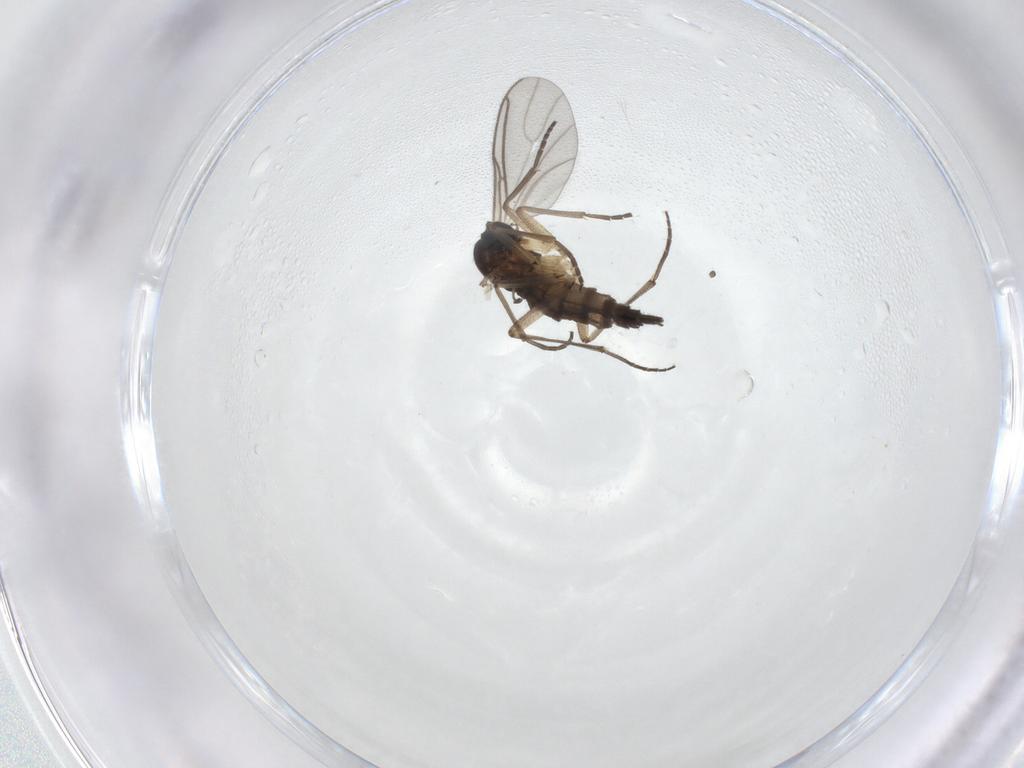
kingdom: Animalia
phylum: Arthropoda
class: Insecta
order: Diptera
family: Sciaridae
